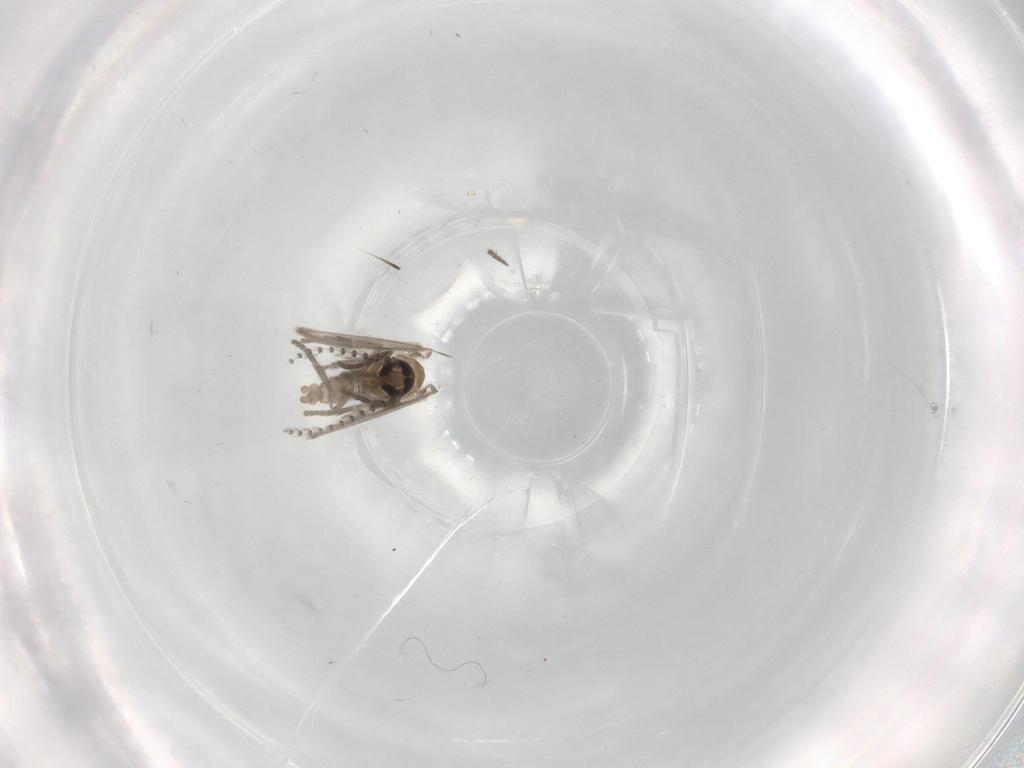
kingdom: Animalia
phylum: Arthropoda
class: Insecta
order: Diptera
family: Psychodidae
